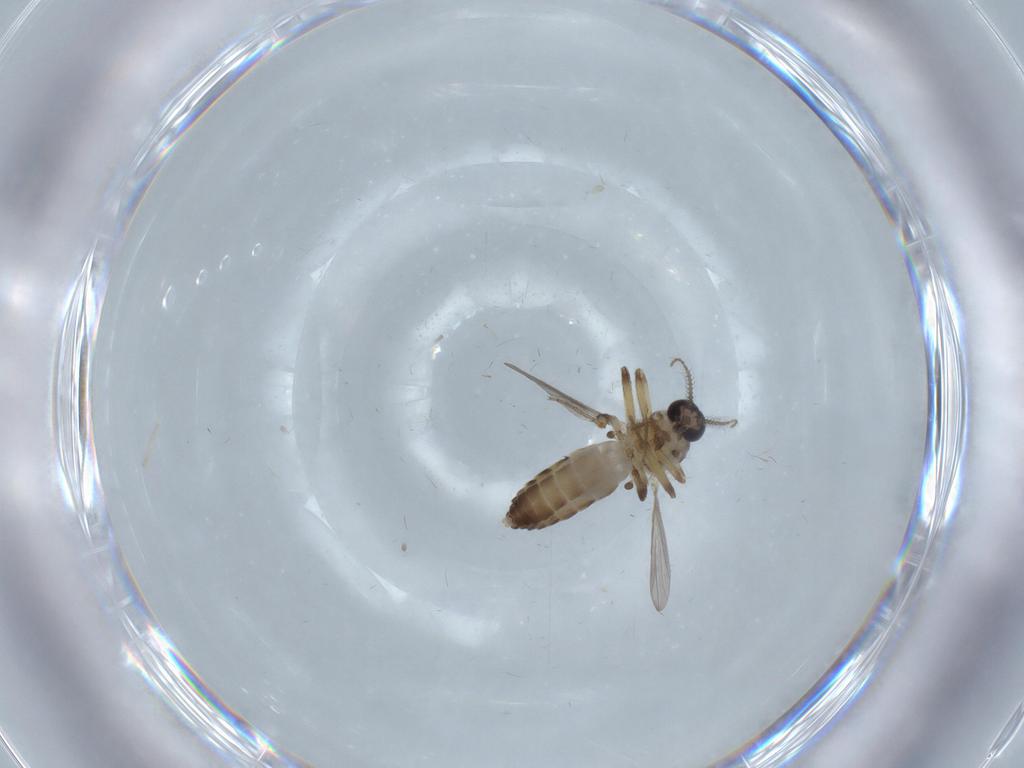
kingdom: Animalia
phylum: Arthropoda
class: Insecta
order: Diptera
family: Ceratopogonidae
